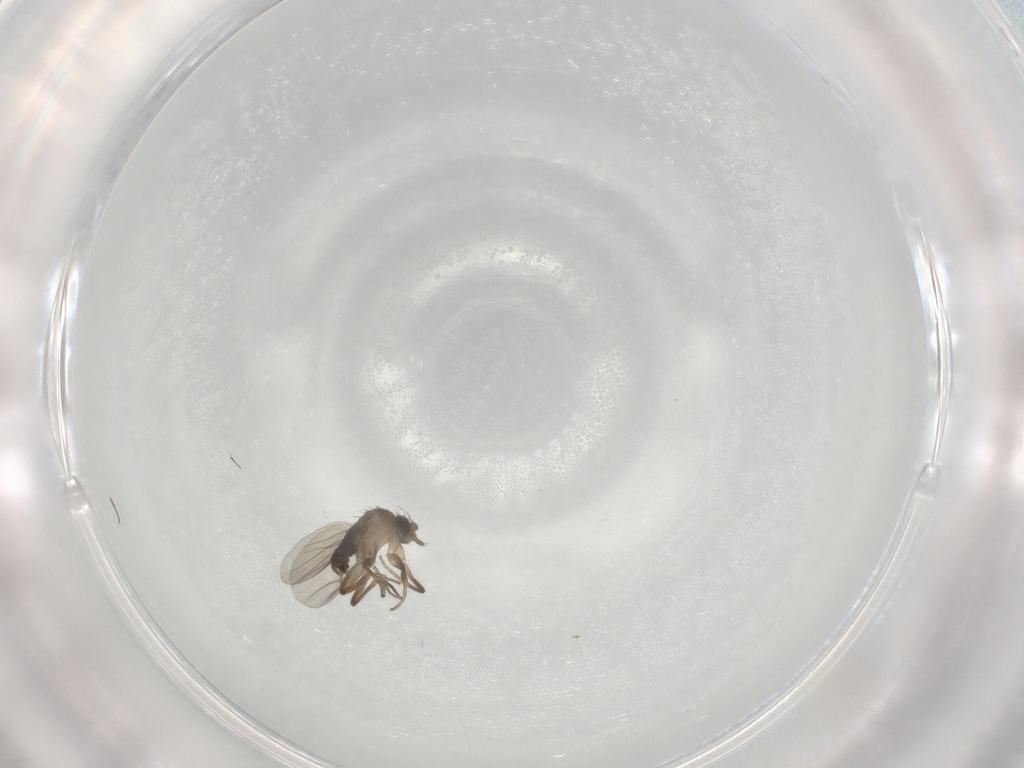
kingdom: Animalia
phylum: Arthropoda
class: Insecta
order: Diptera
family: Phoridae
